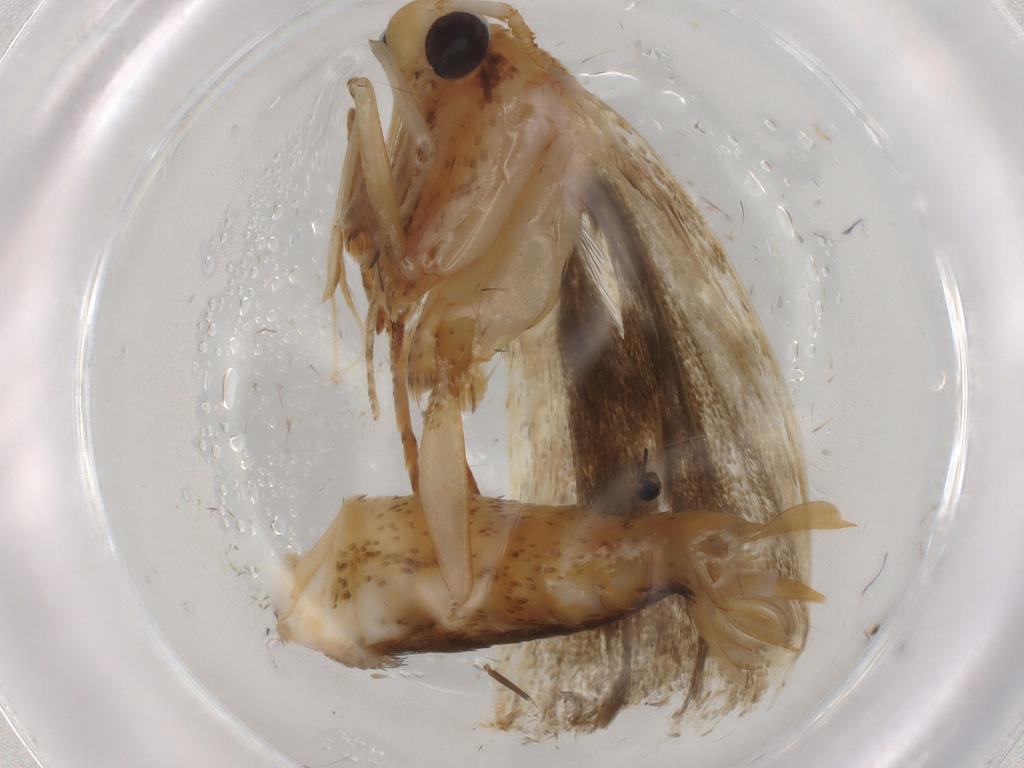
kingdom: Animalia
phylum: Arthropoda
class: Insecta
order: Lepidoptera
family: Autostichidae
